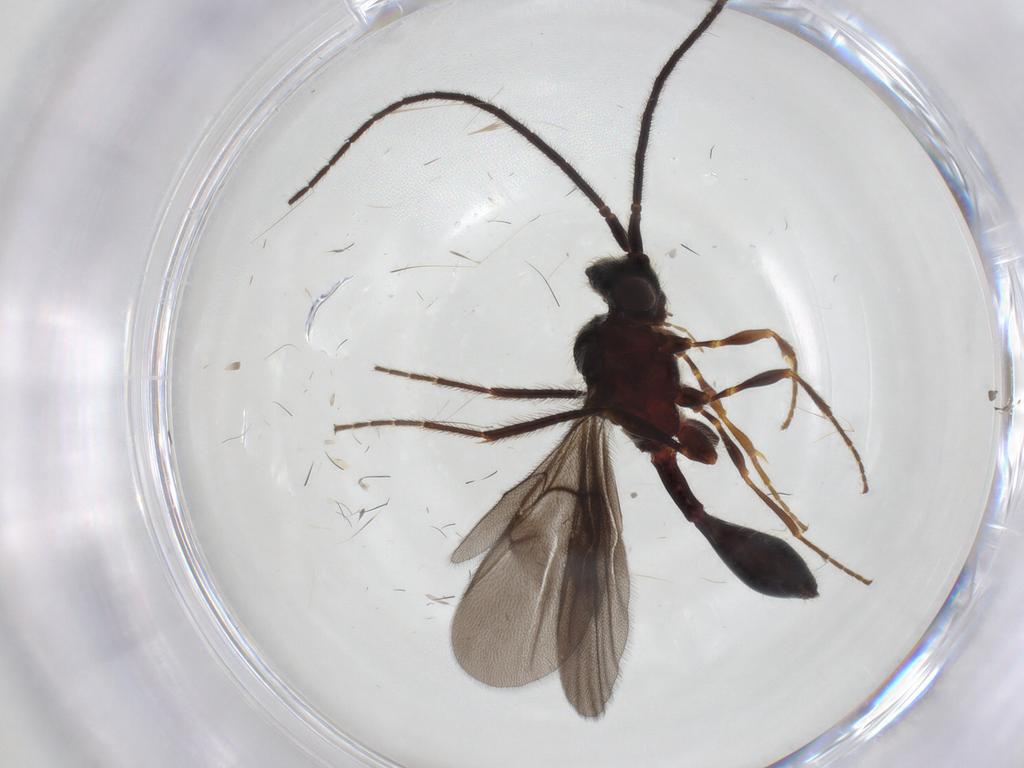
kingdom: Animalia
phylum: Arthropoda
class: Insecta
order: Hymenoptera
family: Diapriidae
